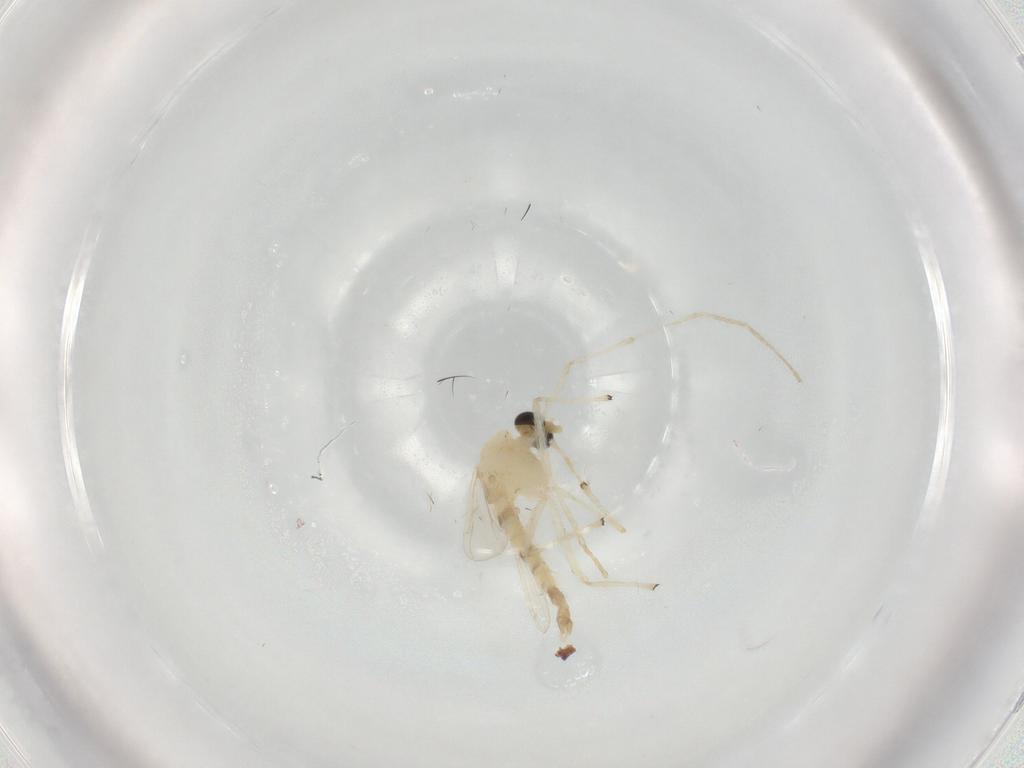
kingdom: Animalia
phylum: Arthropoda
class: Insecta
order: Diptera
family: Chironomidae
